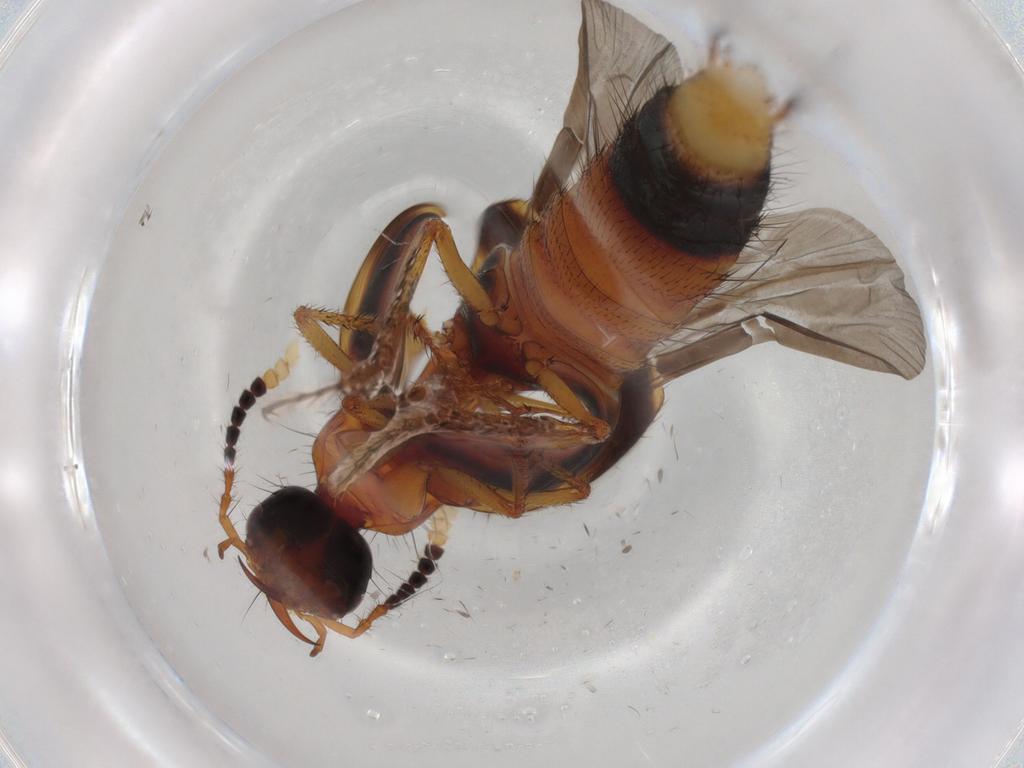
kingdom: Animalia
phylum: Arthropoda
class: Insecta
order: Coleoptera
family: Staphylinidae
